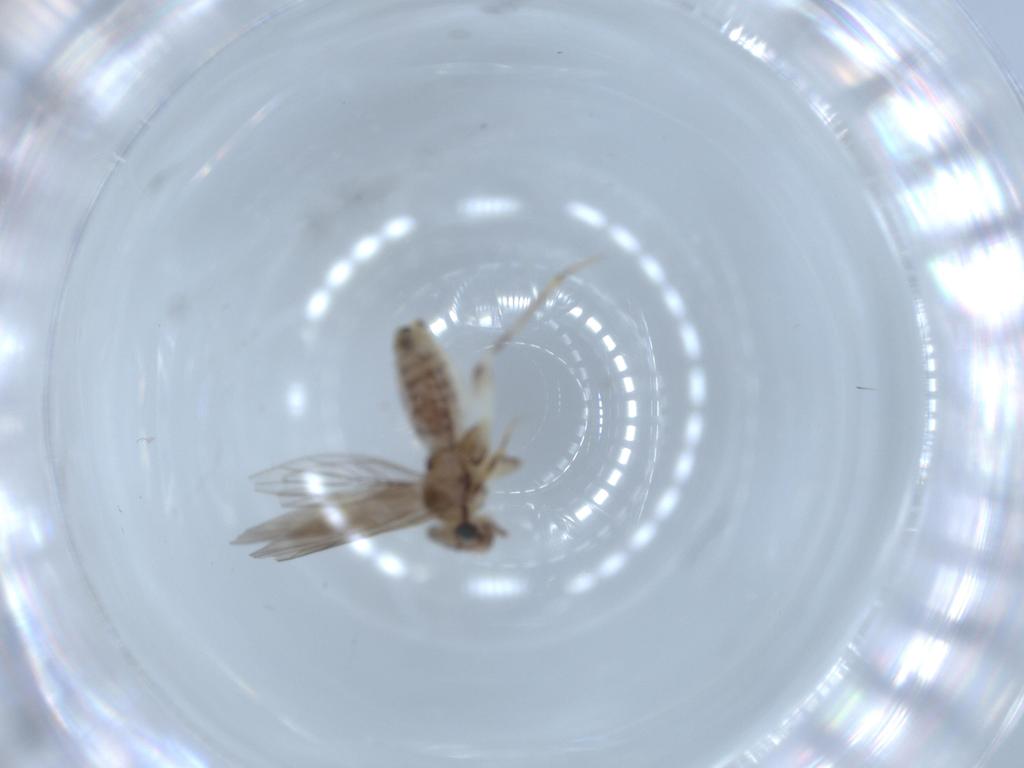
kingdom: Animalia
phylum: Arthropoda
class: Insecta
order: Psocodea
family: Lepidopsocidae
